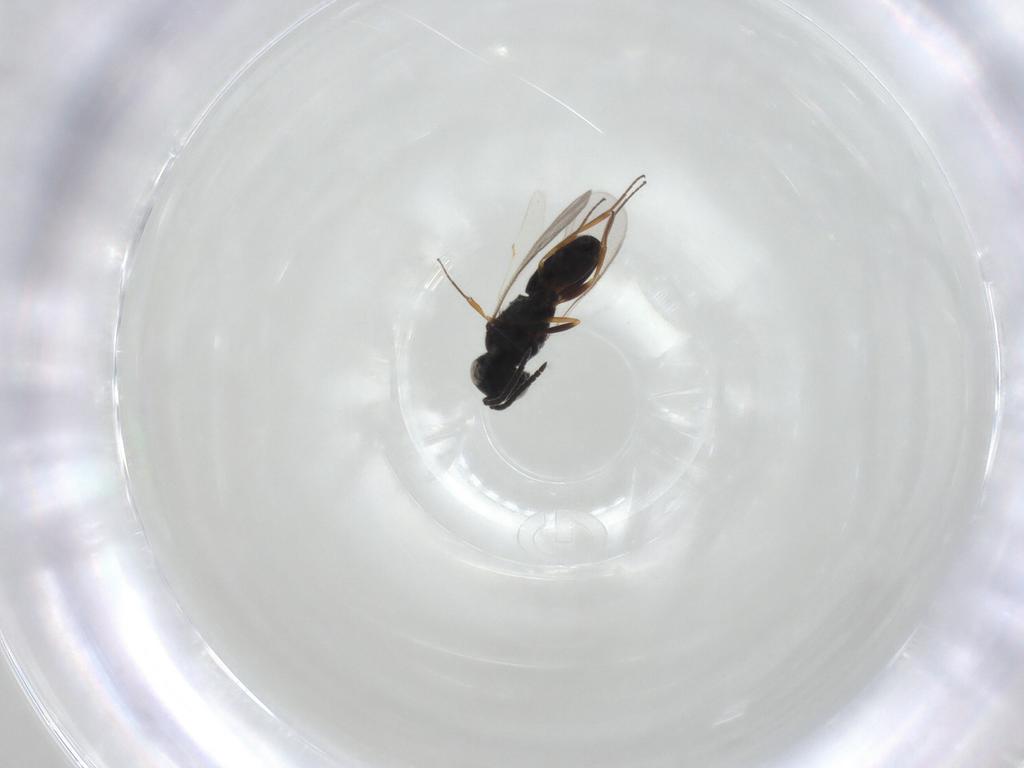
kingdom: Animalia
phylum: Arthropoda
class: Insecta
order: Hymenoptera
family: Scelionidae
